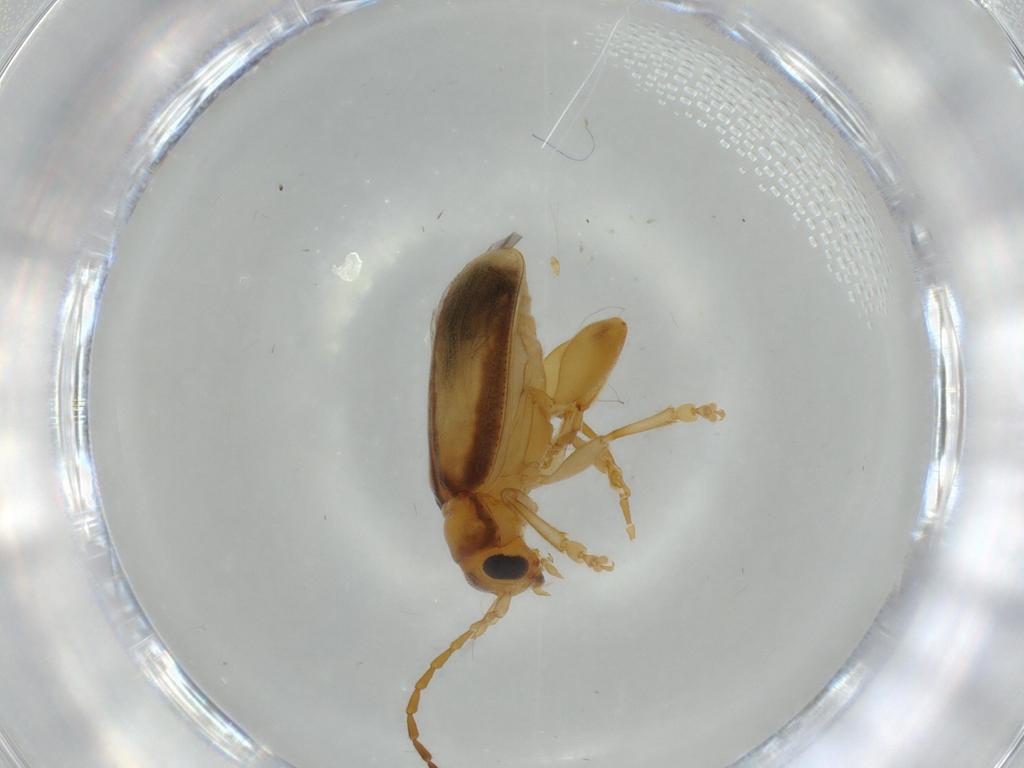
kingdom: Animalia
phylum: Arthropoda
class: Insecta
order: Coleoptera
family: Chrysomelidae
